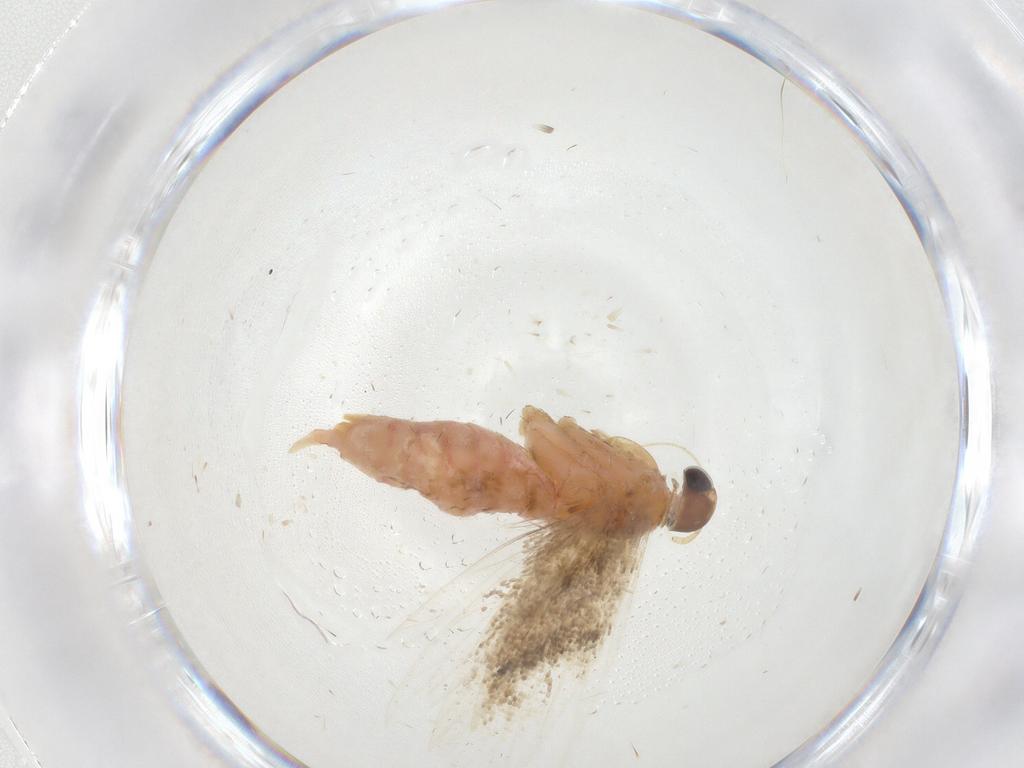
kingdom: Animalia
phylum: Arthropoda
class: Insecta
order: Lepidoptera
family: Gelechiidae
